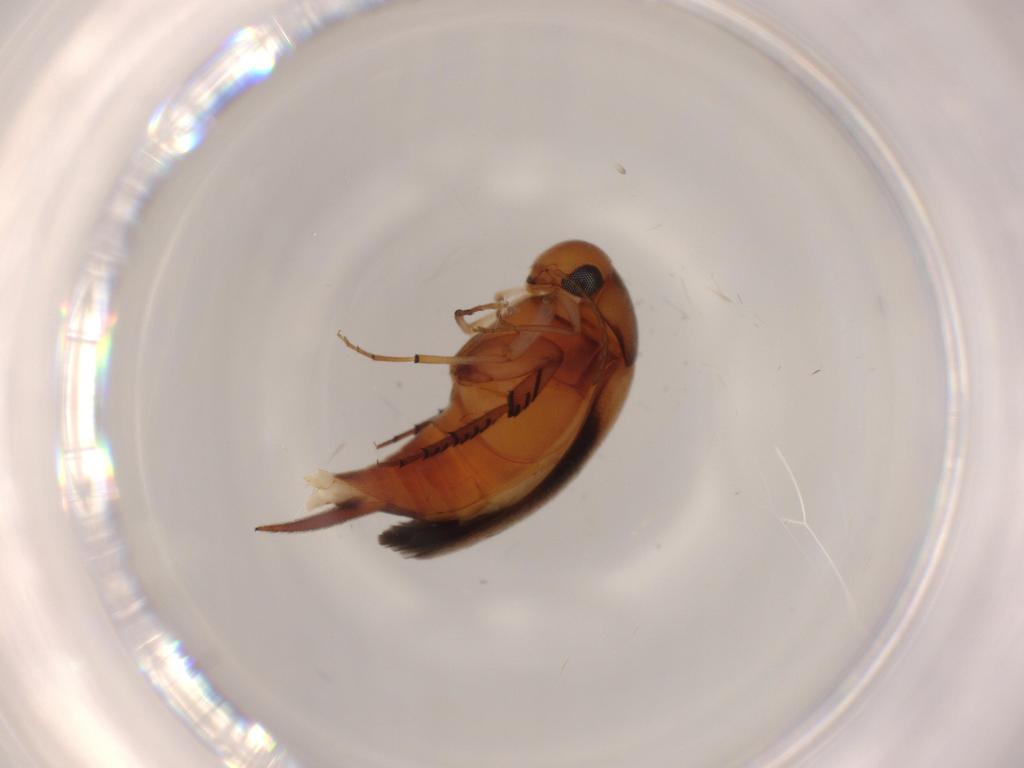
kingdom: Animalia
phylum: Arthropoda
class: Insecta
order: Coleoptera
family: Mordellidae
